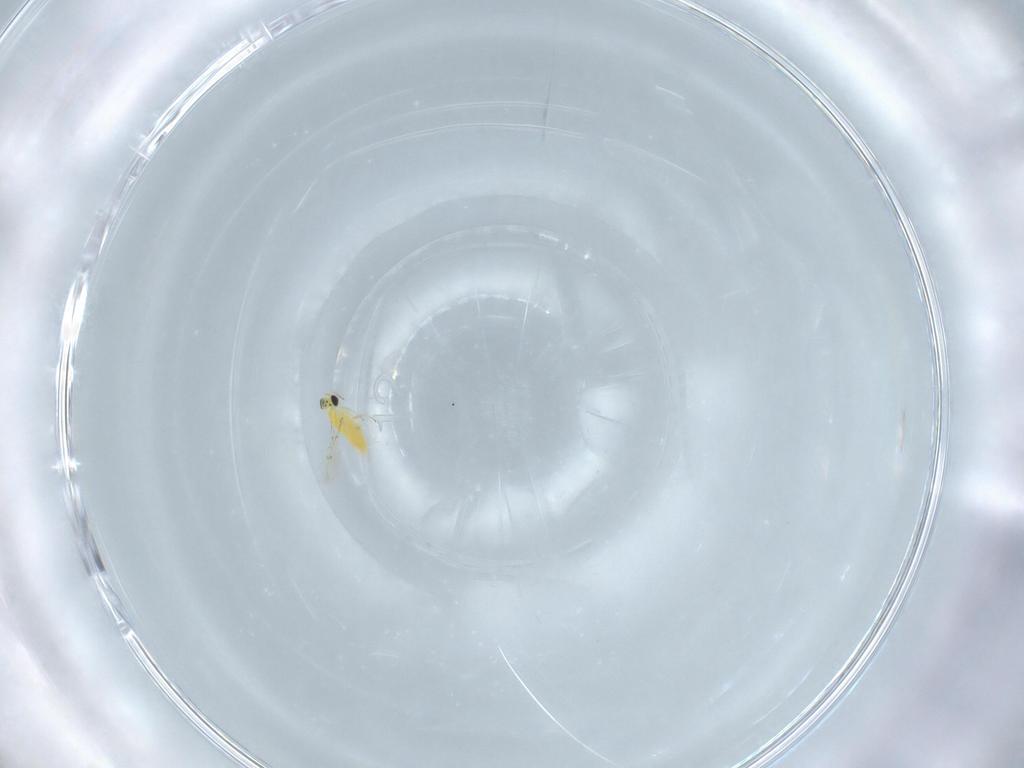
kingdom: Animalia
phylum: Arthropoda
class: Insecta
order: Hymenoptera
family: Trichogrammatidae
